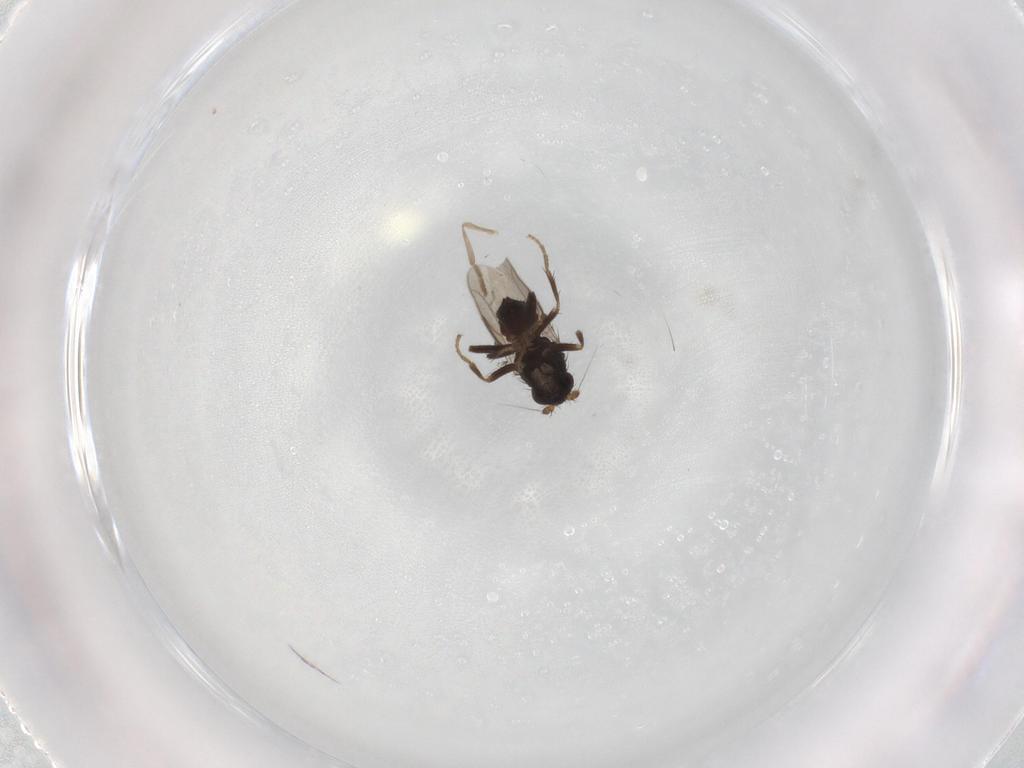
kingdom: Animalia
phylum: Arthropoda
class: Insecta
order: Diptera
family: Sphaeroceridae
